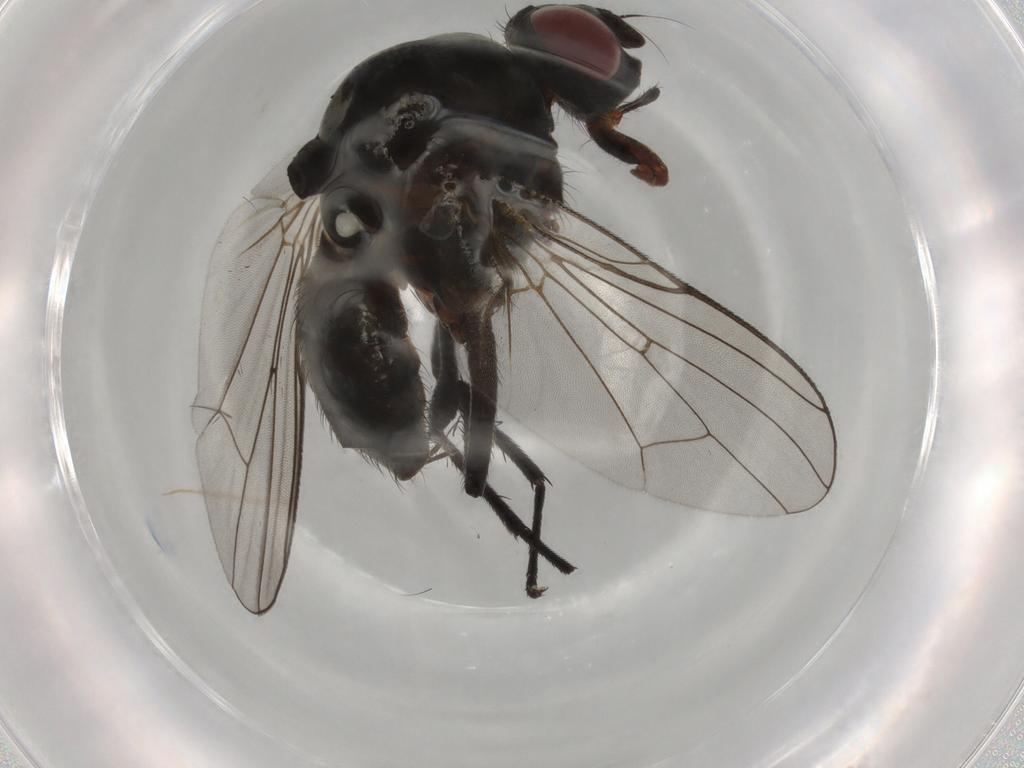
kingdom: Animalia
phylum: Arthropoda
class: Insecta
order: Diptera
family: Anthomyiidae
